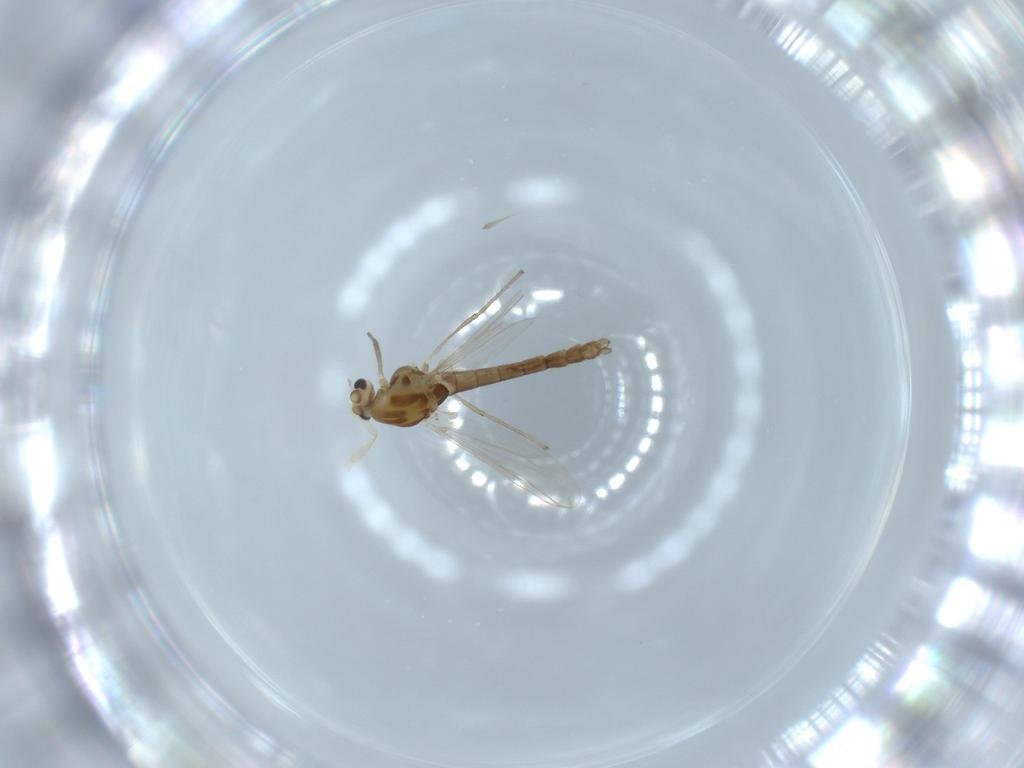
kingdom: Animalia
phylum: Arthropoda
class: Insecta
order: Diptera
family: Chironomidae
